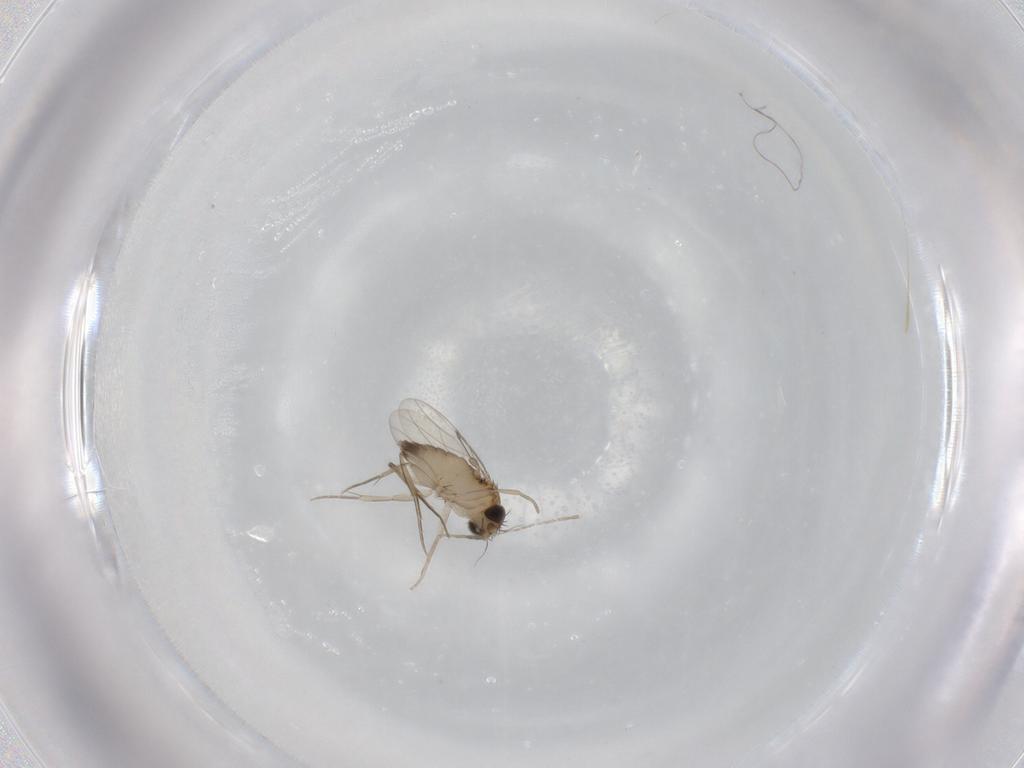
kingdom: Animalia
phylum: Arthropoda
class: Insecta
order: Diptera
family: Phoridae
